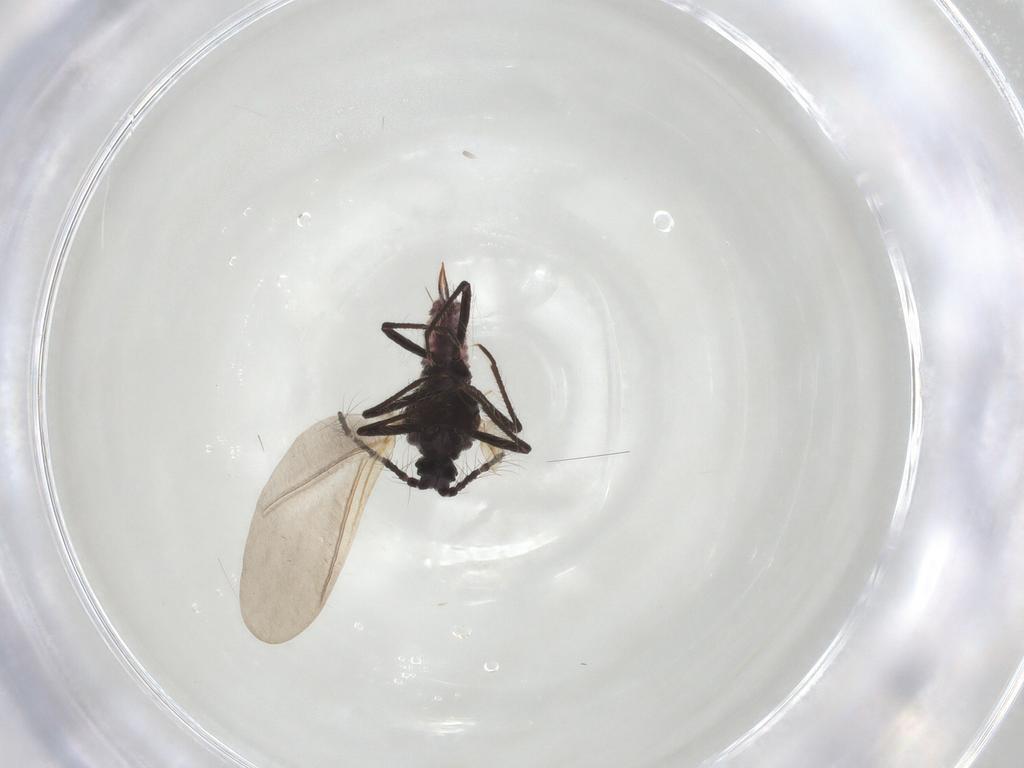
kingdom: Animalia
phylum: Arthropoda
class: Insecta
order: Hemiptera
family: Putoidae
